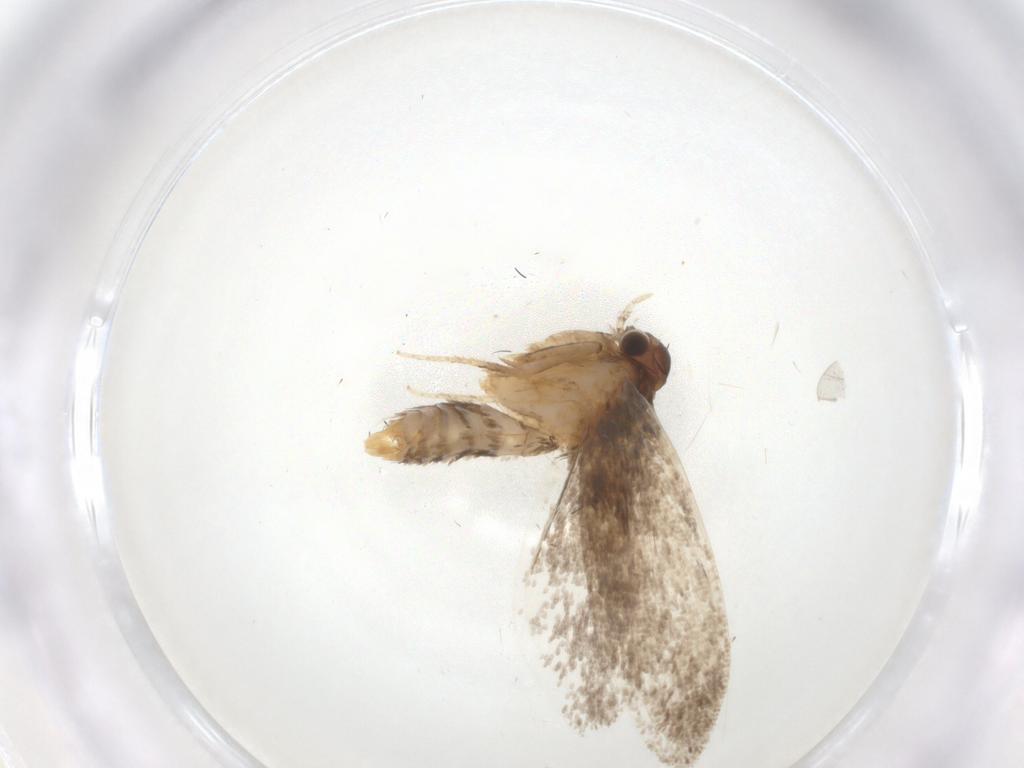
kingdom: Animalia
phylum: Arthropoda
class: Insecta
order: Lepidoptera
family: Dryadaulidae
